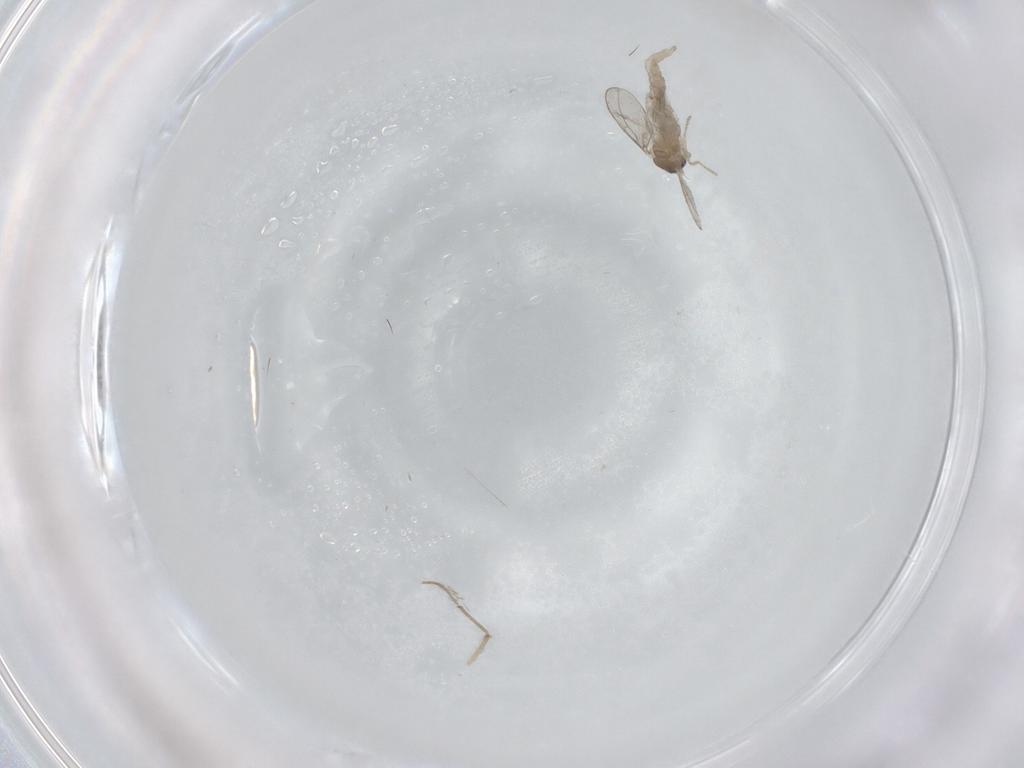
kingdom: Animalia
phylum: Arthropoda
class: Insecta
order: Diptera
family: Cecidomyiidae
